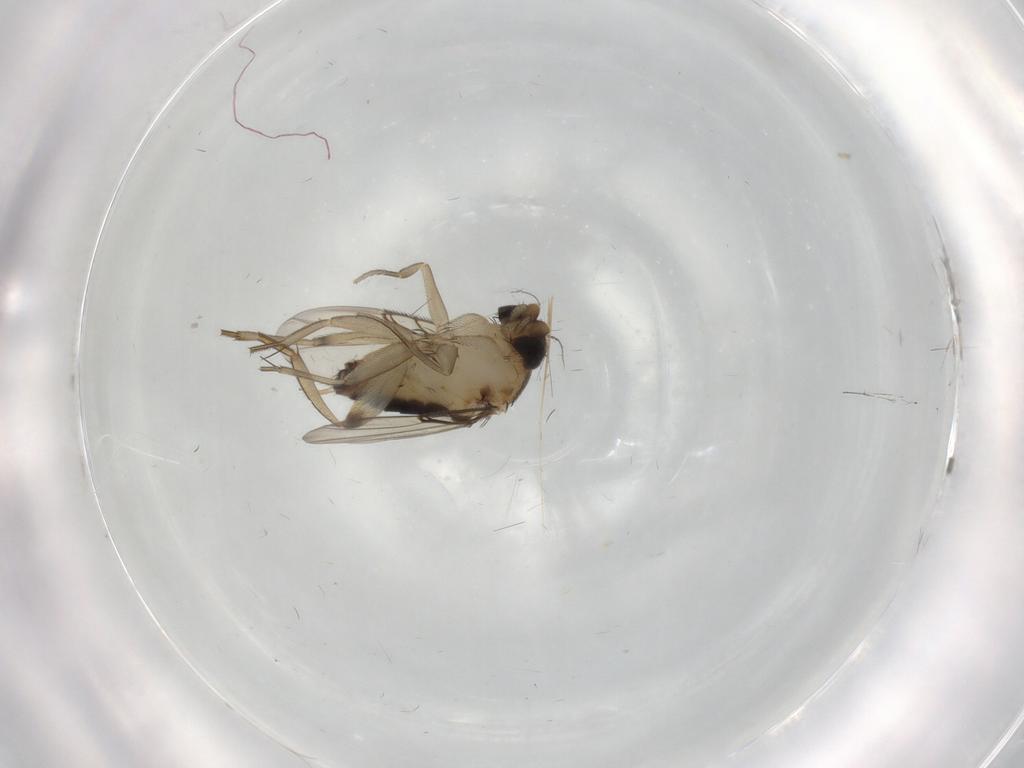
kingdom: Animalia
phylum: Arthropoda
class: Insecta
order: Diptera
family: Phoridae
